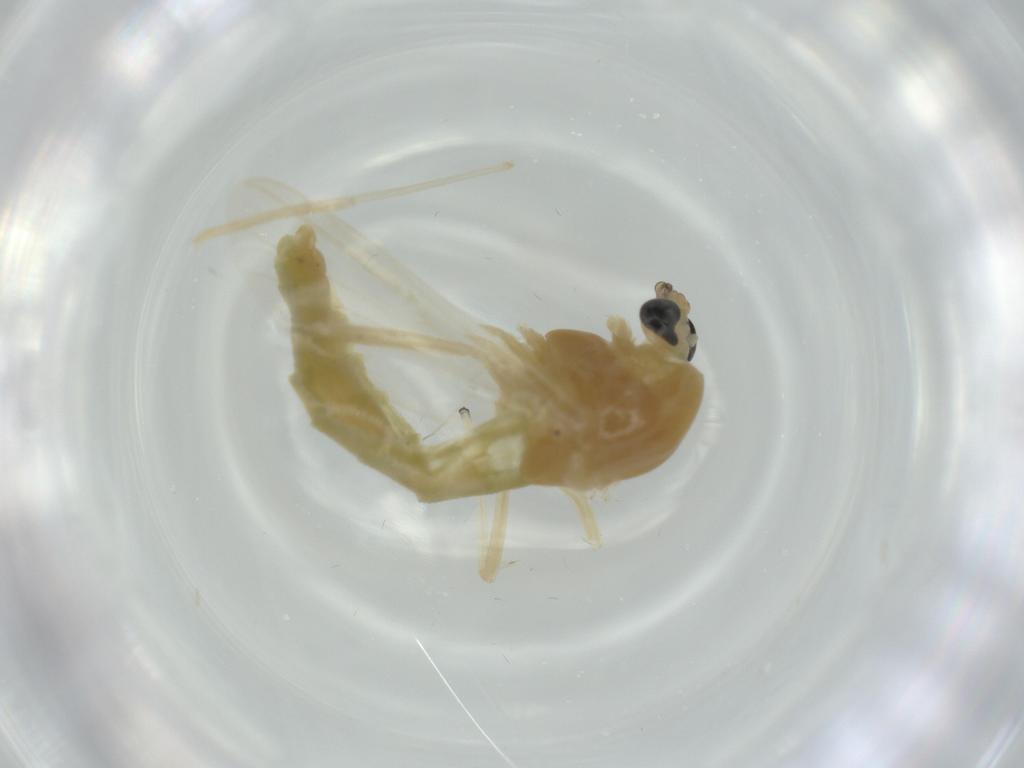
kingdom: Animalia
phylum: Arthropoda
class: Insecta
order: Diptera
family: Chironomidae
